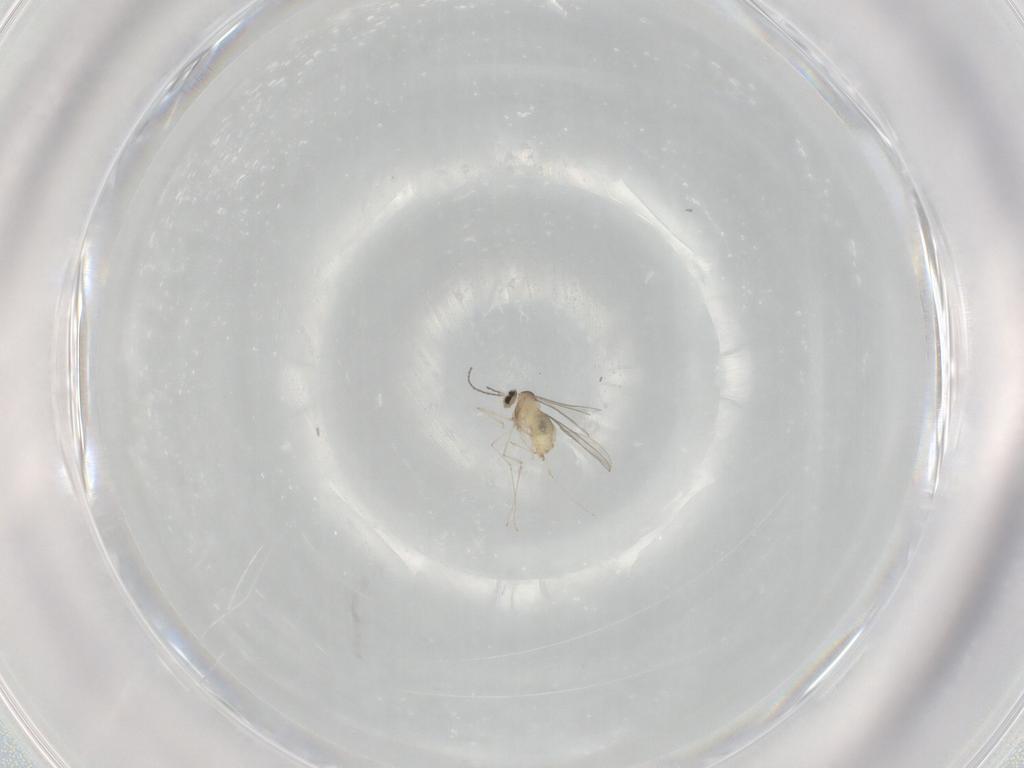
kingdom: Animalia
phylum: Arthropoda
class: Insecta
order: Diptera
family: Cecidomyiidae
